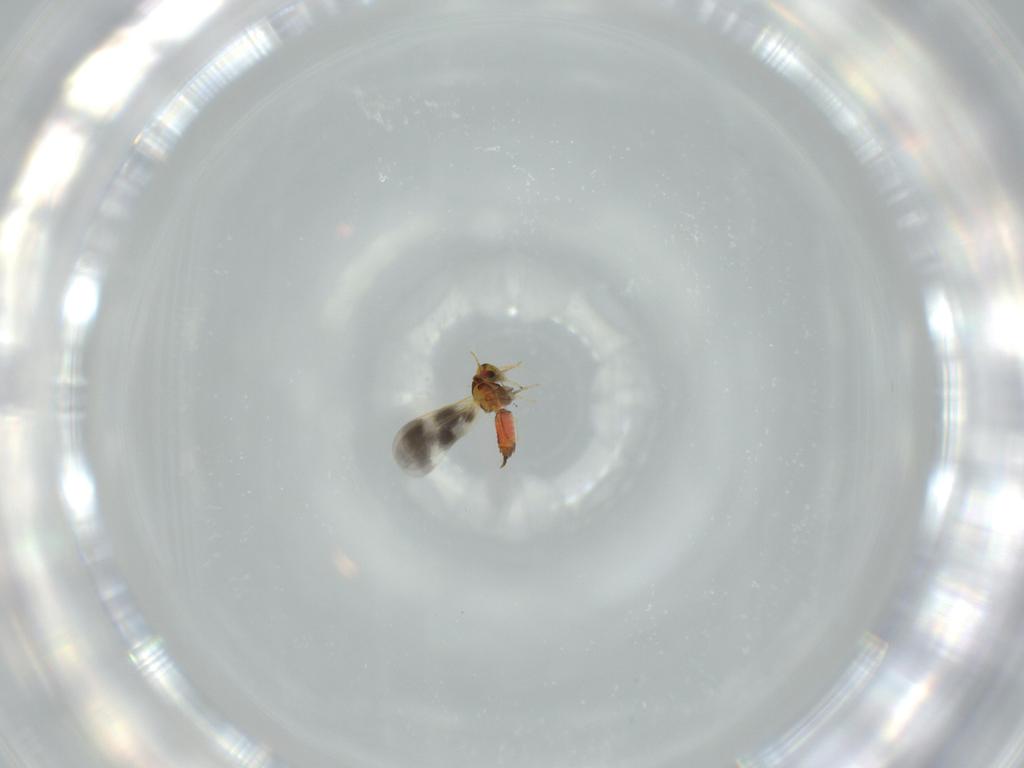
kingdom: Animalia
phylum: Arthropoda
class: Insecta
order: Hemiptera
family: Aleyrodidae
